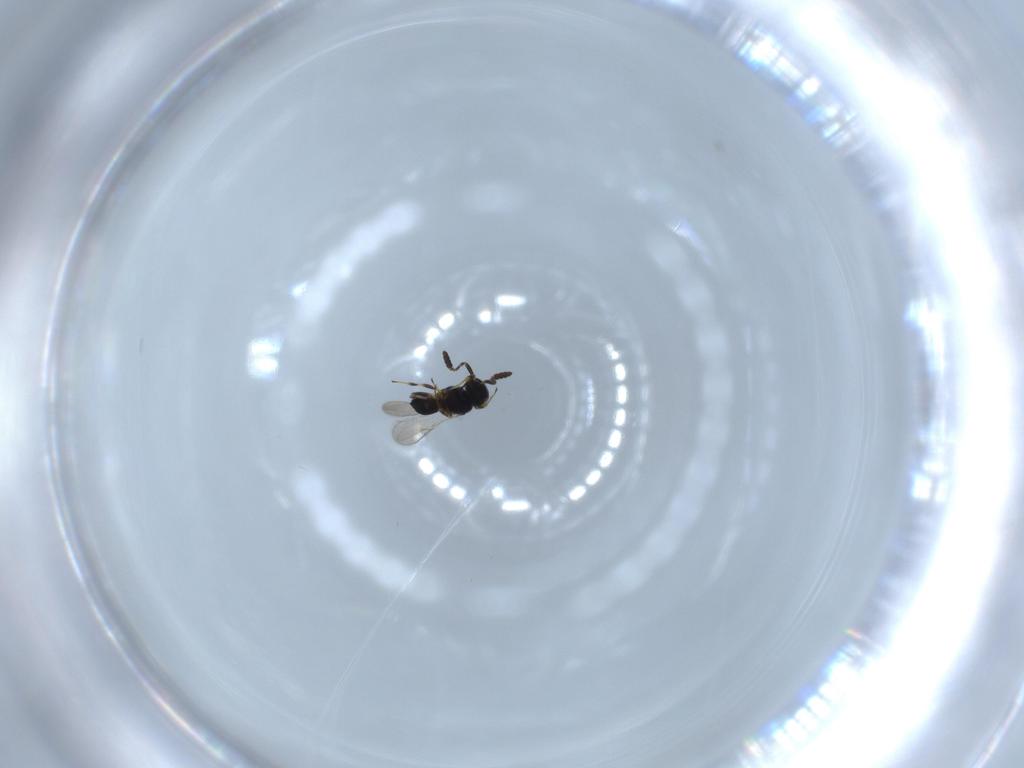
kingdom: Animalia
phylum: Arthropoda
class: Insecta
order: Hymenoptera
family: Scelionidae
